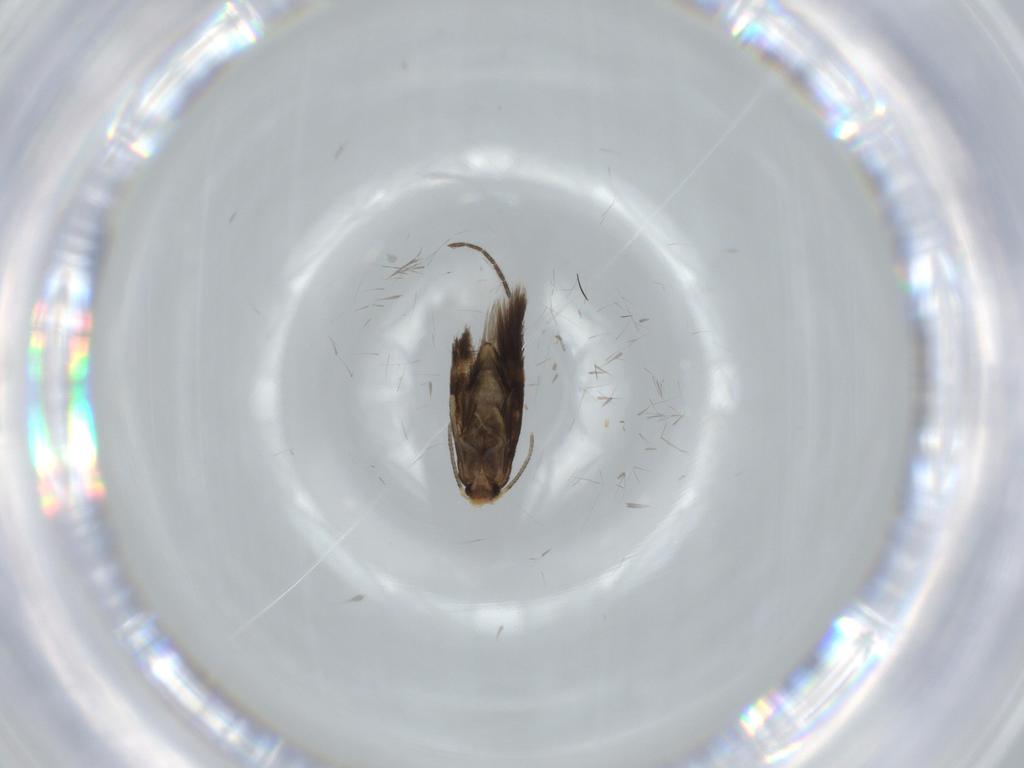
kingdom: Animalia
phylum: Arthropoda
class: Insecta
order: Lepidoptera
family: Nepticulidae
